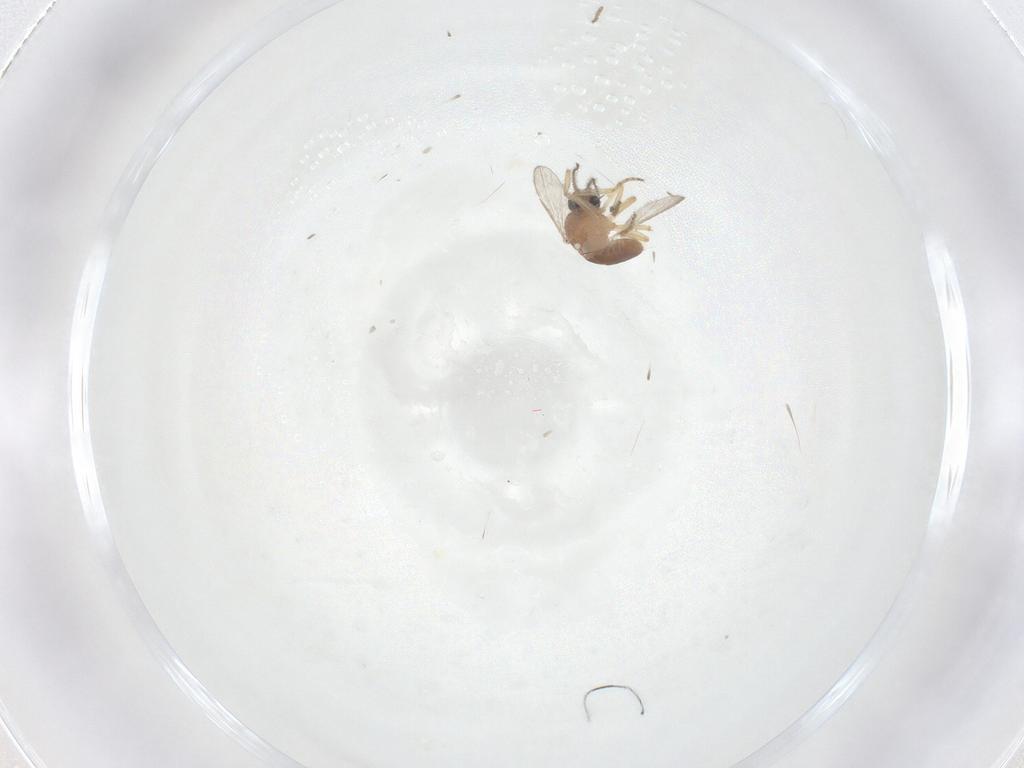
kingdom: Animalia
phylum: Arthropoda
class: Insecta
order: Diptera
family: Ceratopogonidae
